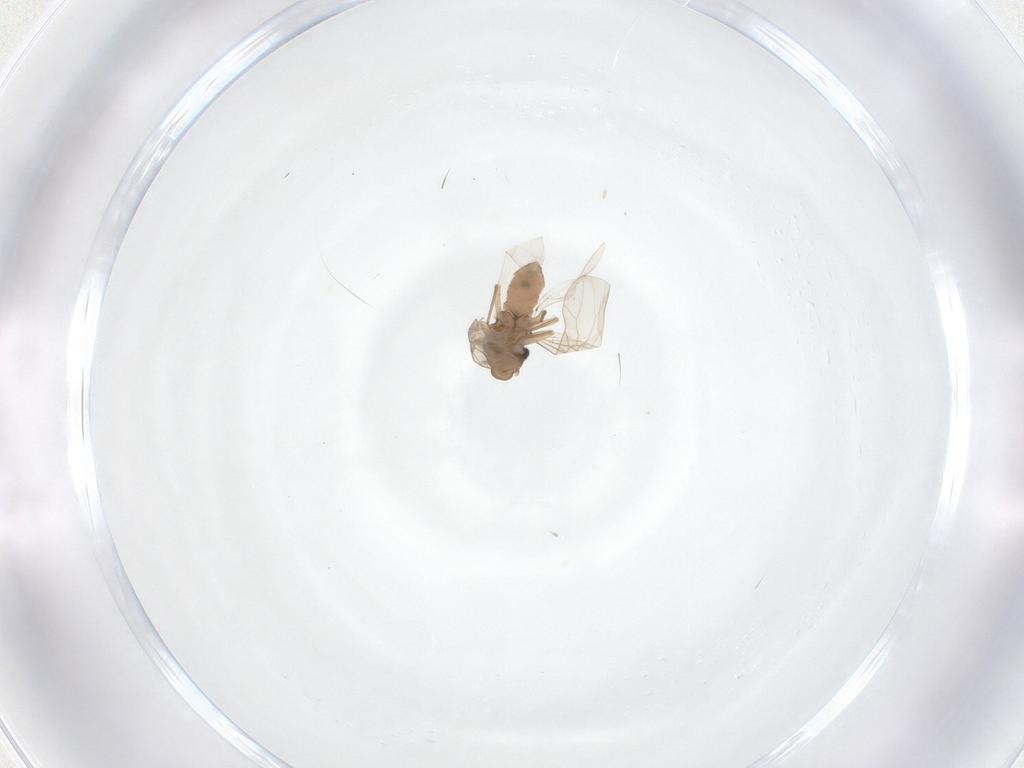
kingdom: Animalia
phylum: Arthropoda
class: Insecta
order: Psocodea
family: Lepidopsocidae
